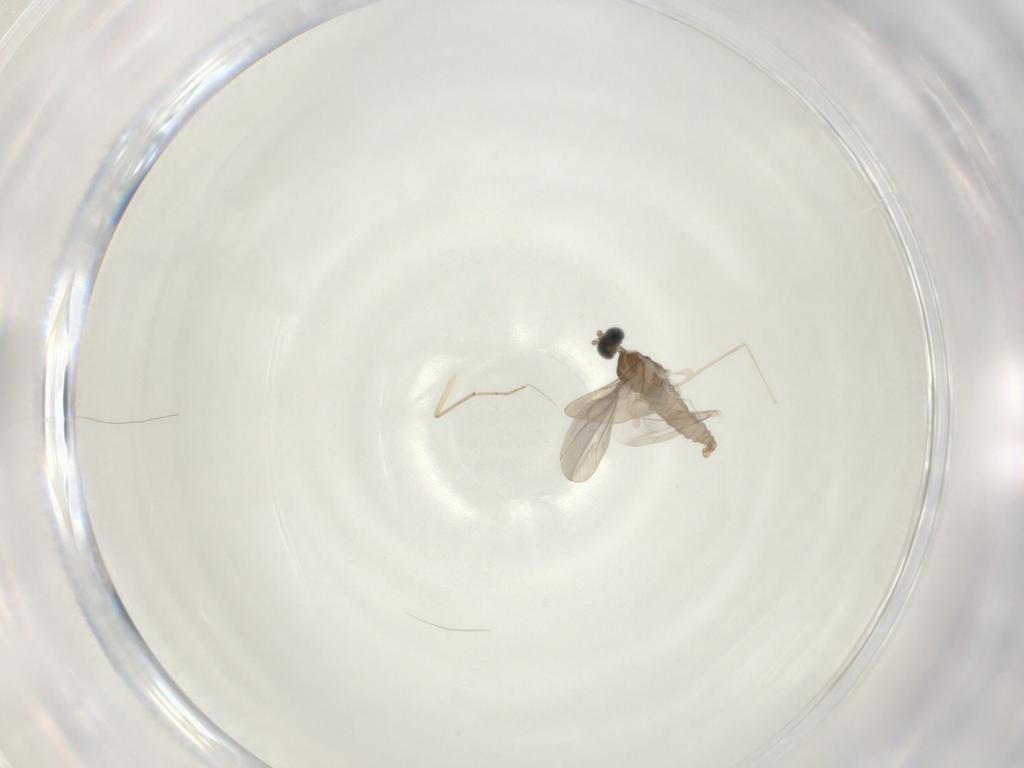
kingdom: Animalia
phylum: Arthropoda
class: Insecta
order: Diptera
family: Cecidomyiidae
